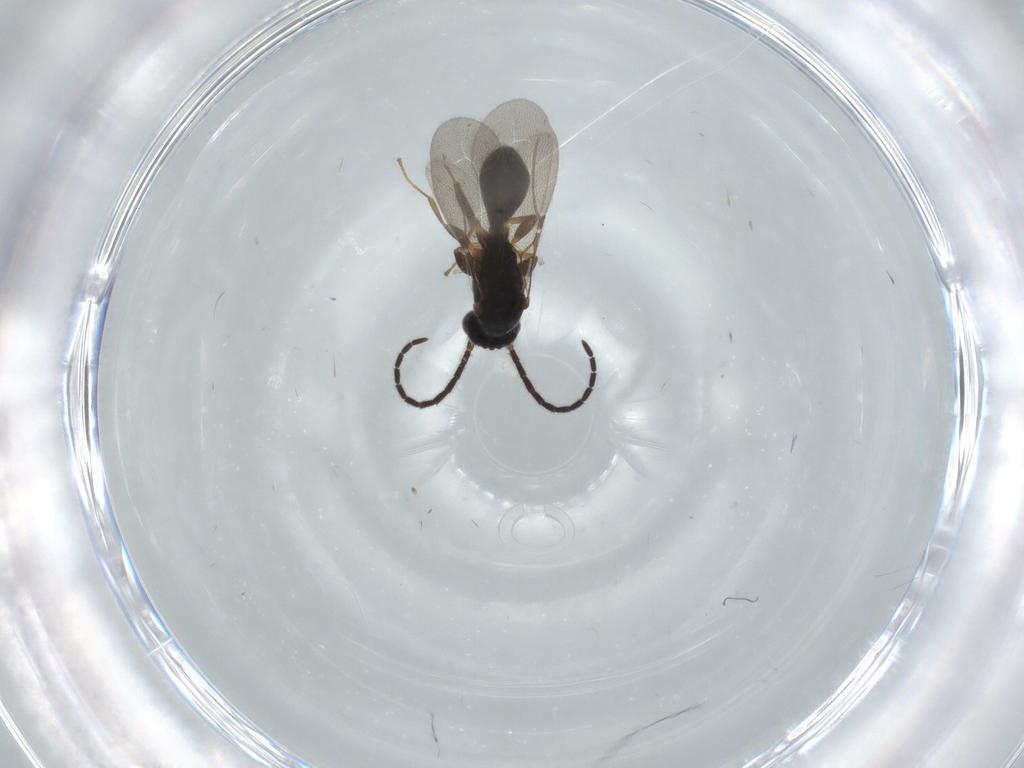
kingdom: Animalia
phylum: Arthropoda
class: Insecta
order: Hymenoptera
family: Bethylidae
